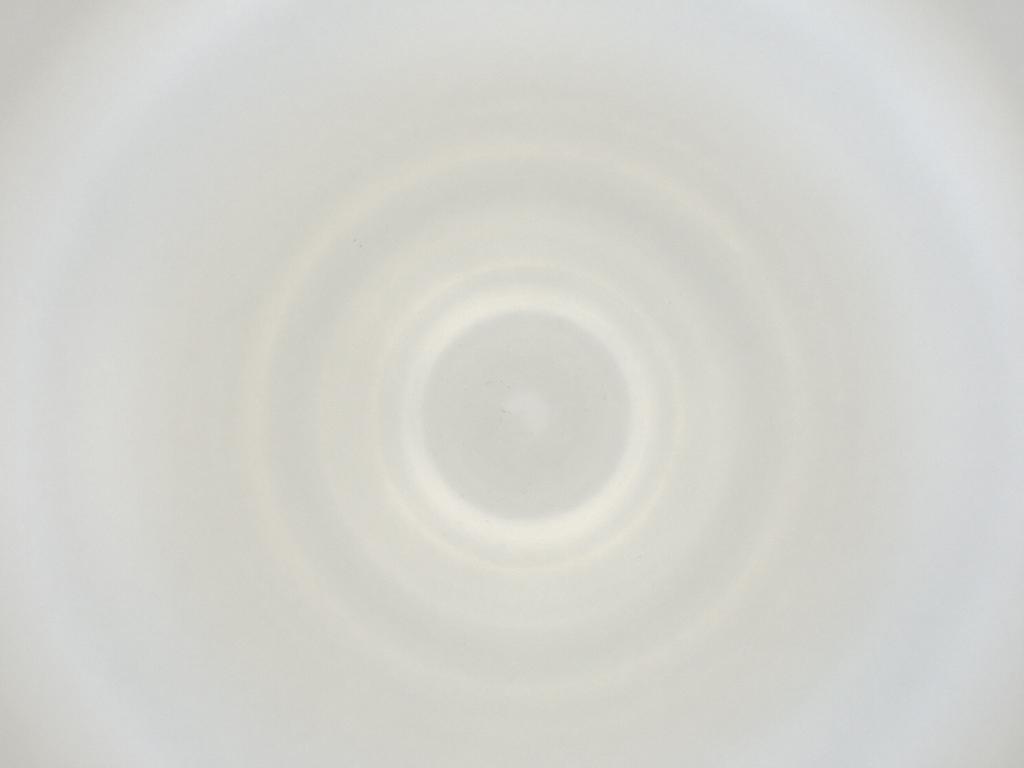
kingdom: Animalia
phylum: Arthropoda
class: Insecta
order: Diptera
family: Cecidomyiidae
